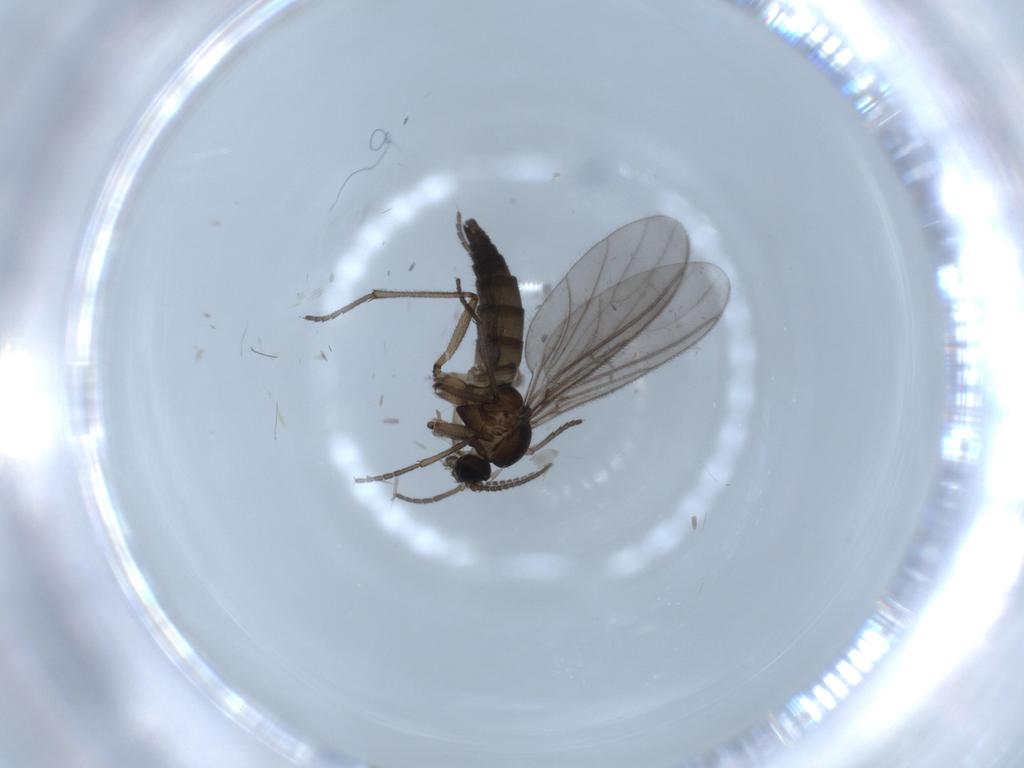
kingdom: Animalia
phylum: Arthropoda
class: Insecta
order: Diptera
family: Sciaridae
